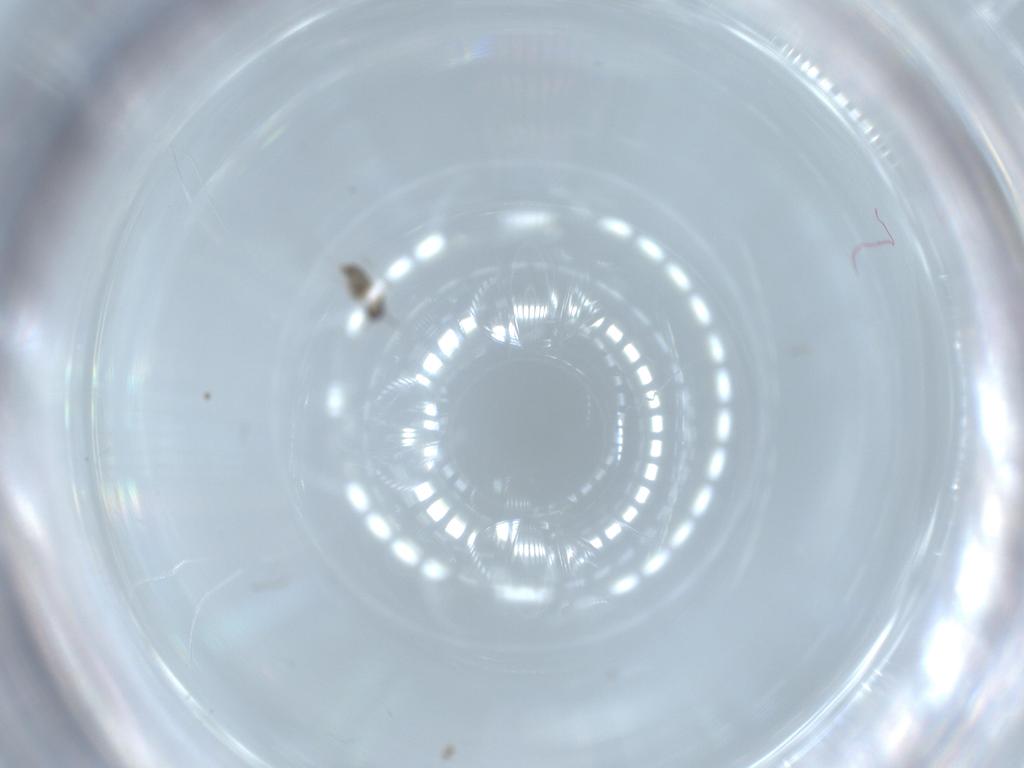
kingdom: Animalia
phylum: Arthropoda
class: Insecta
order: Diptera
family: Cecidomyiidae
